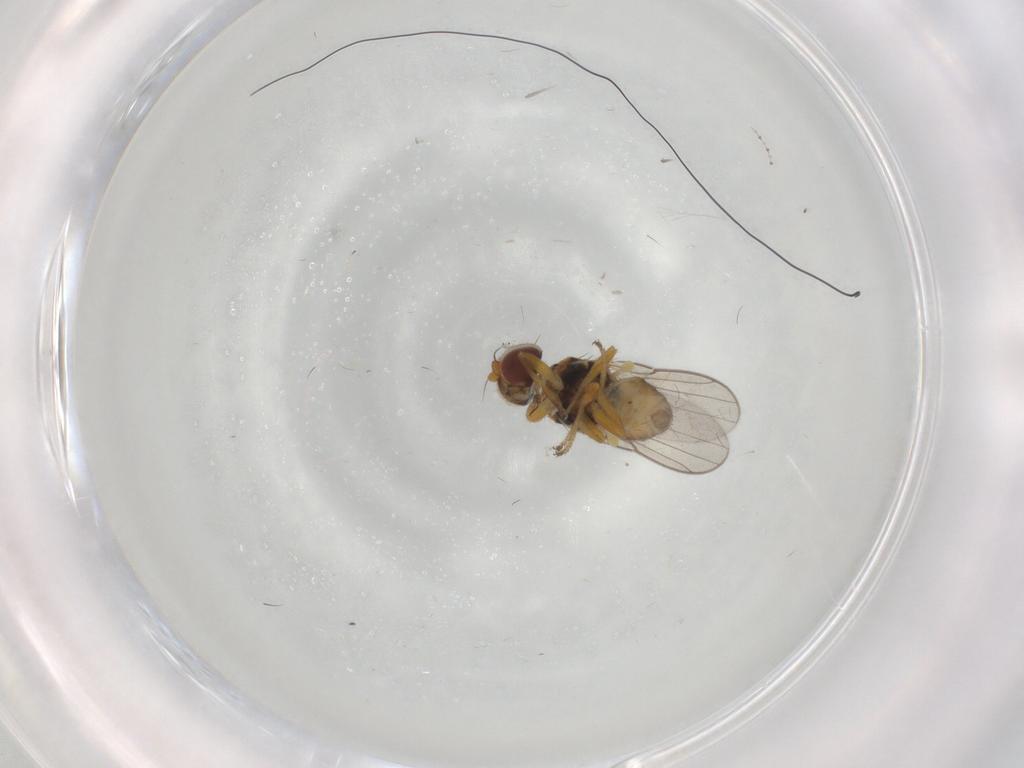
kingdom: Animalia
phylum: Arthropoda
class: Insecta
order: Diptera
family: Chloropidae
